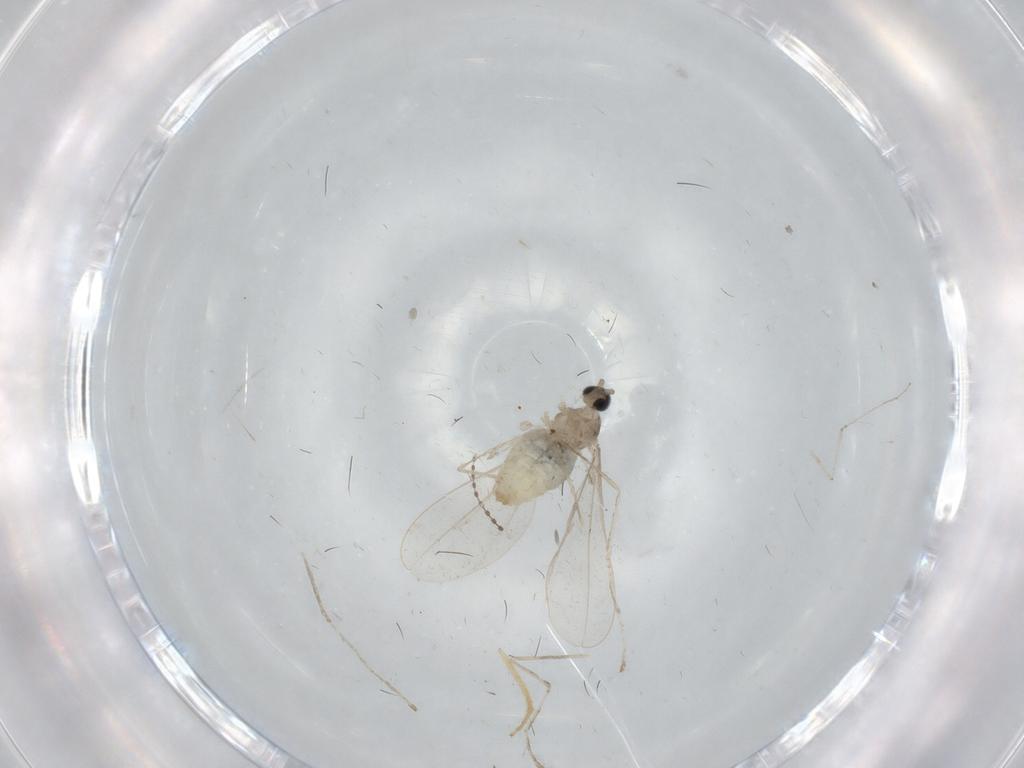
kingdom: Animalia
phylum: Arthropoda
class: Insecta
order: Diptera
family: Cecidomyiidae
